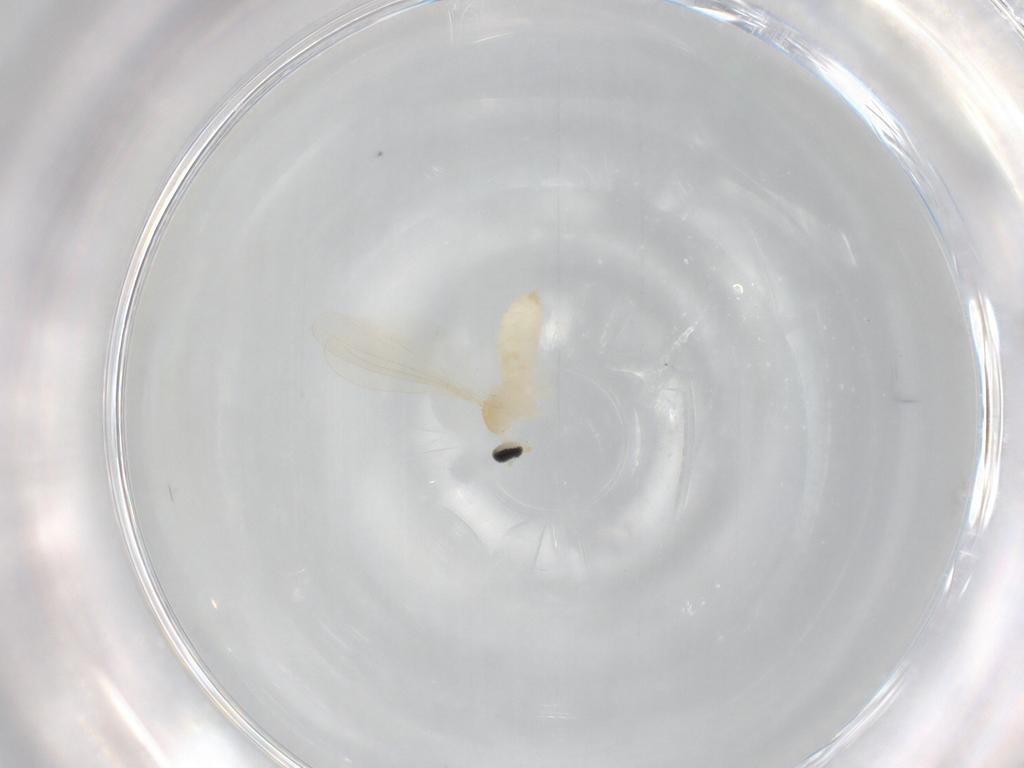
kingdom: Animalia
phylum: Arthropoda
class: Insecta
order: Diptera
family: Cecidomyiidae
